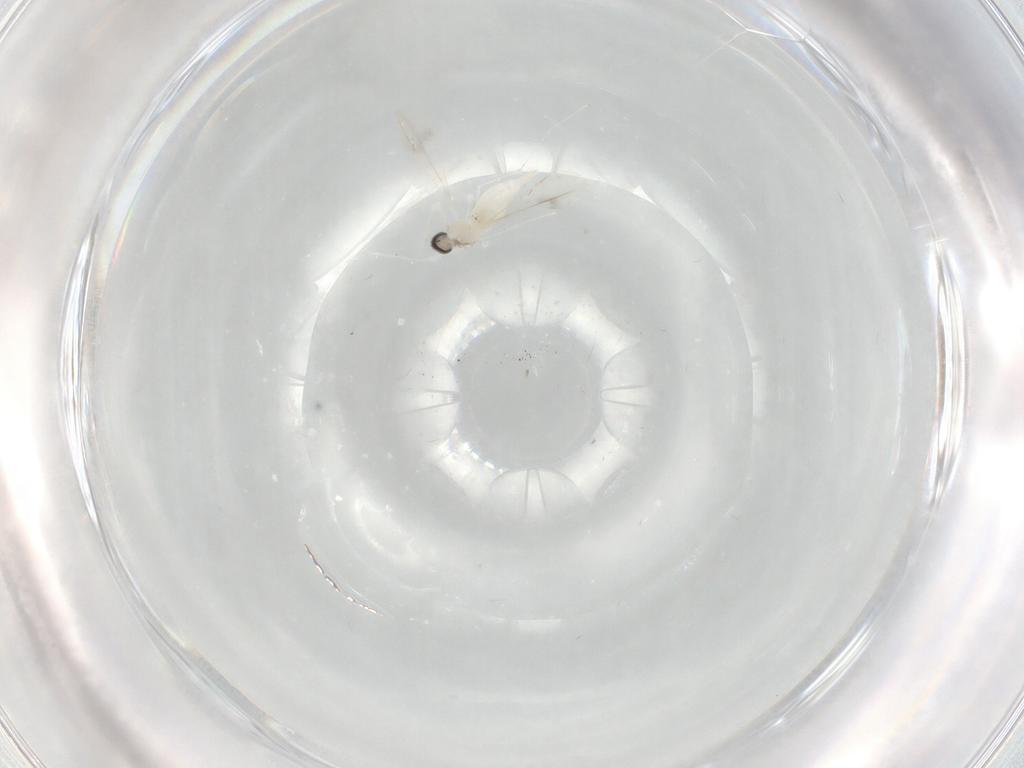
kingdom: Animalia
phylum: Arthropoda
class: Insecta
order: Diptera
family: Cecidomyiidae
